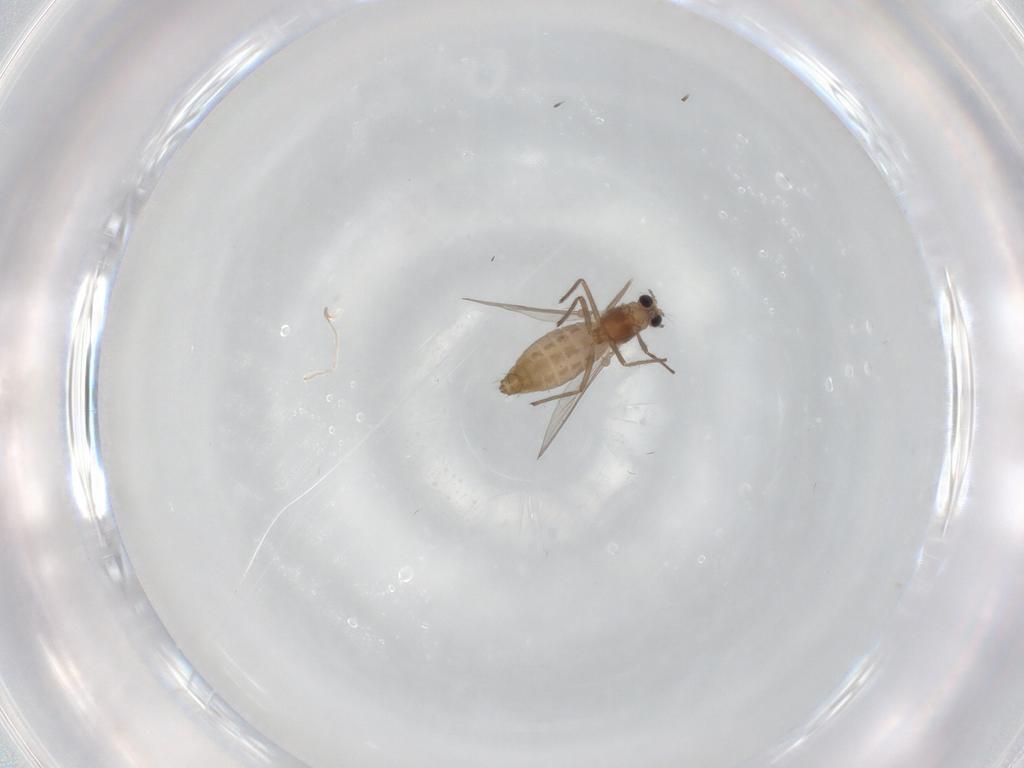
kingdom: Animalia
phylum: Arthropoda
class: Insecta
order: Diptera
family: Chironomidae
